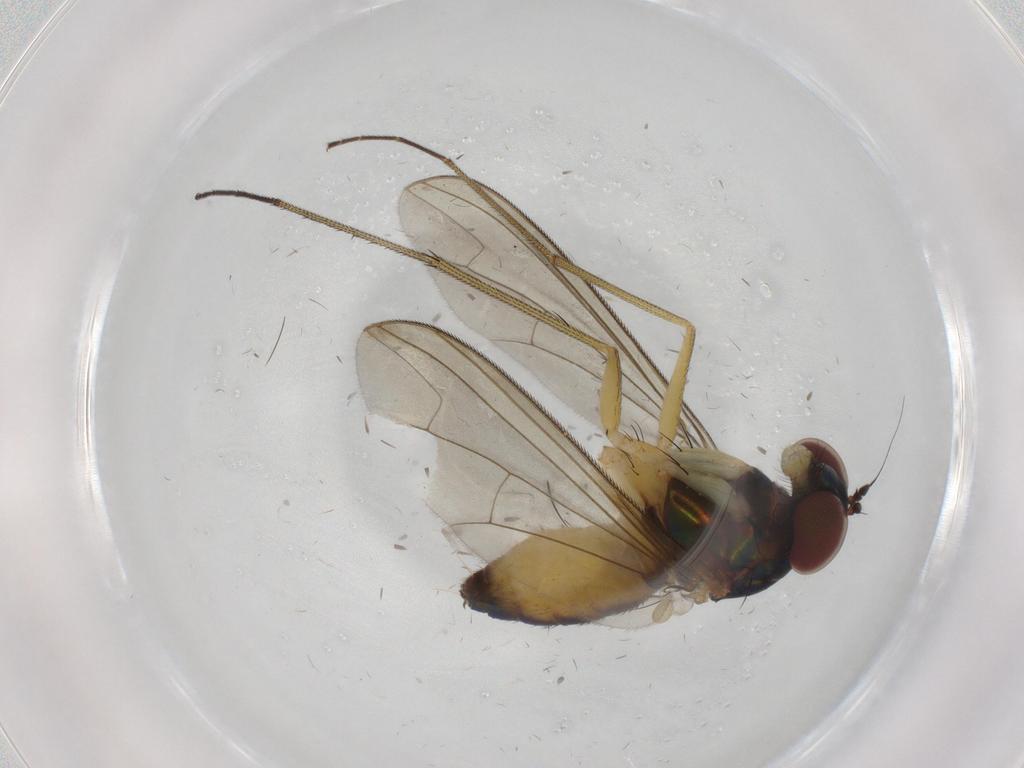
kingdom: Animalia
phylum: Arthropoda
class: Insecta
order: Diptera
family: Dolichopodidae
